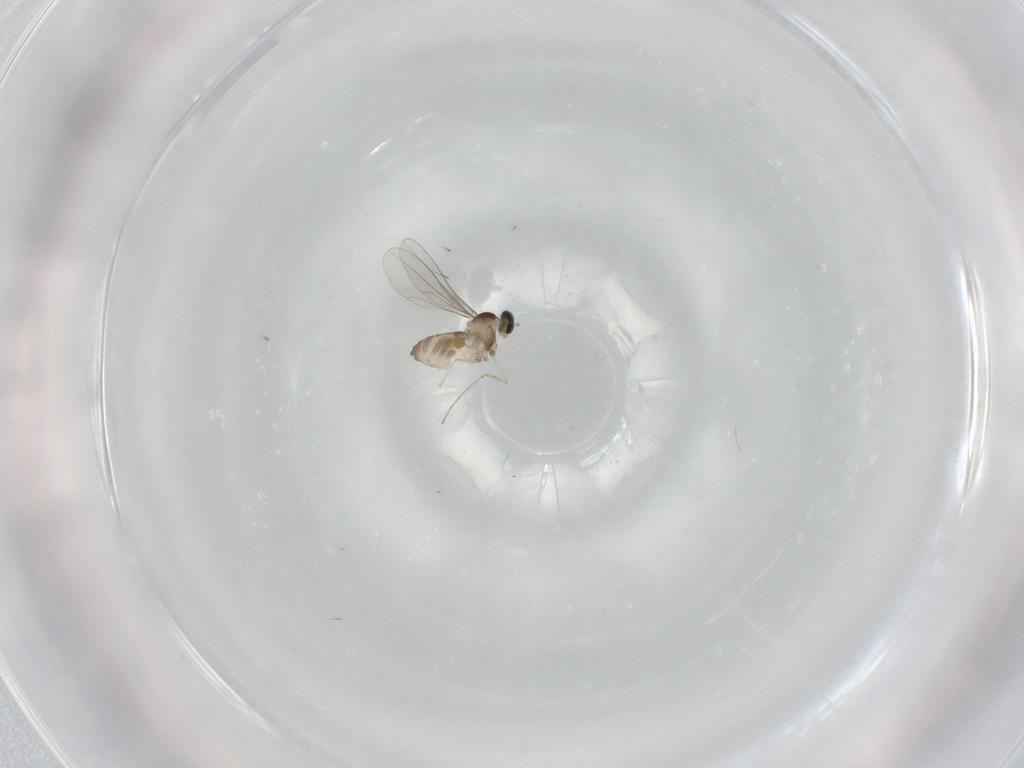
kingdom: Animalia
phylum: Arthropoda
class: Insecta
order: Diptera
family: Cecidomyiidae
